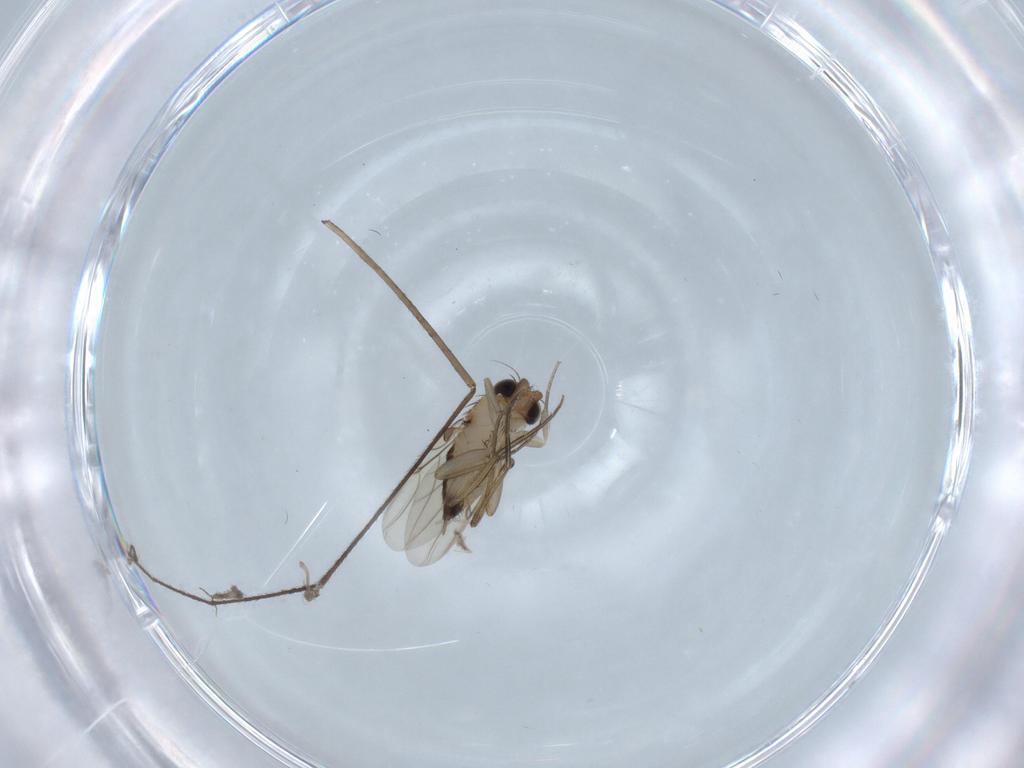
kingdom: Animalia
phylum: Arthropoda
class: Insecta
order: Diptera
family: Phoridae
